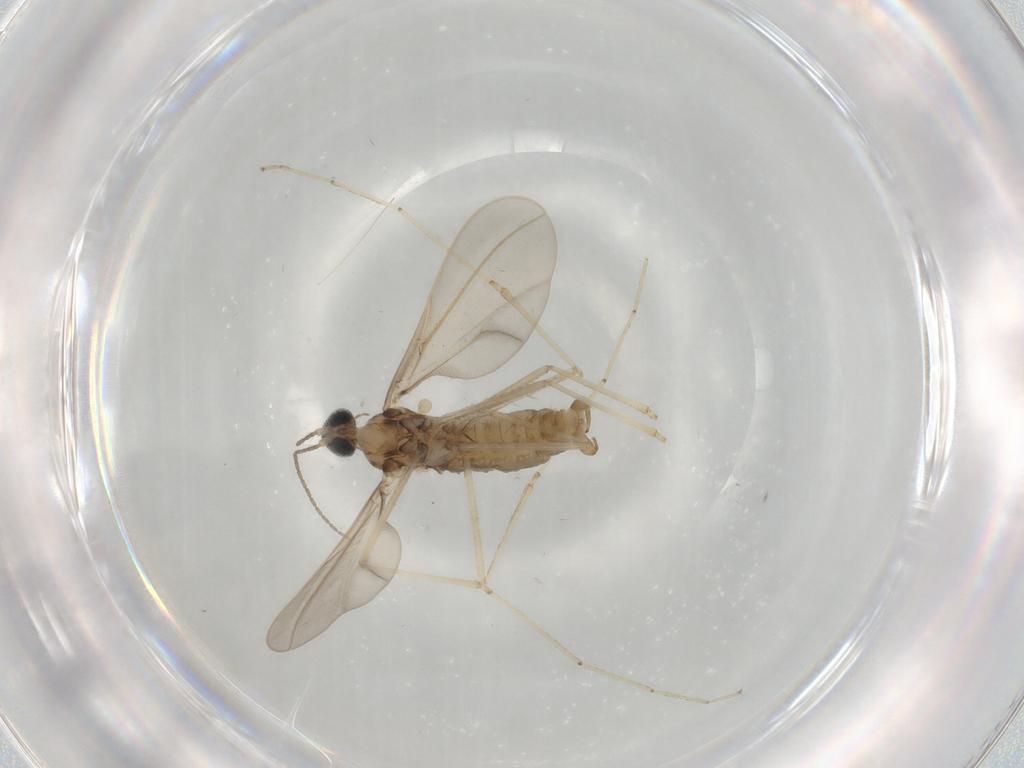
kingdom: Animalia
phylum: Arthropoda
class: Insecta
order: Diptera
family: Cecidomyiidae
